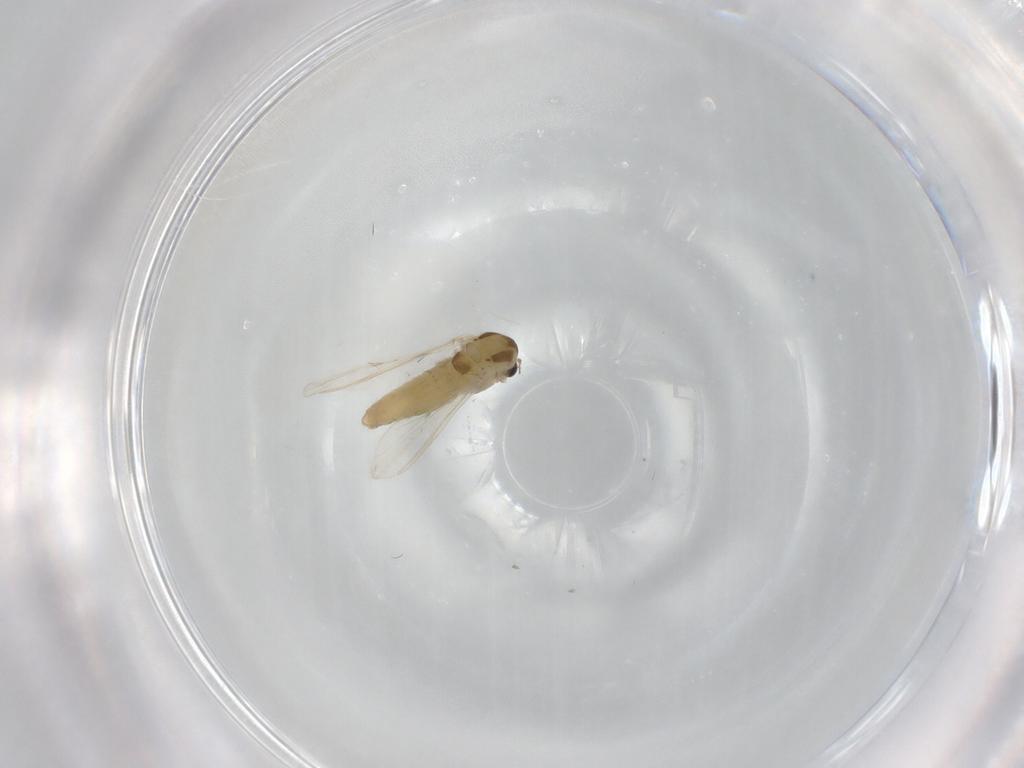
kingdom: Animalia
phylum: Arthropoda
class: Insecta
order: Diptera
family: Chironomidae
